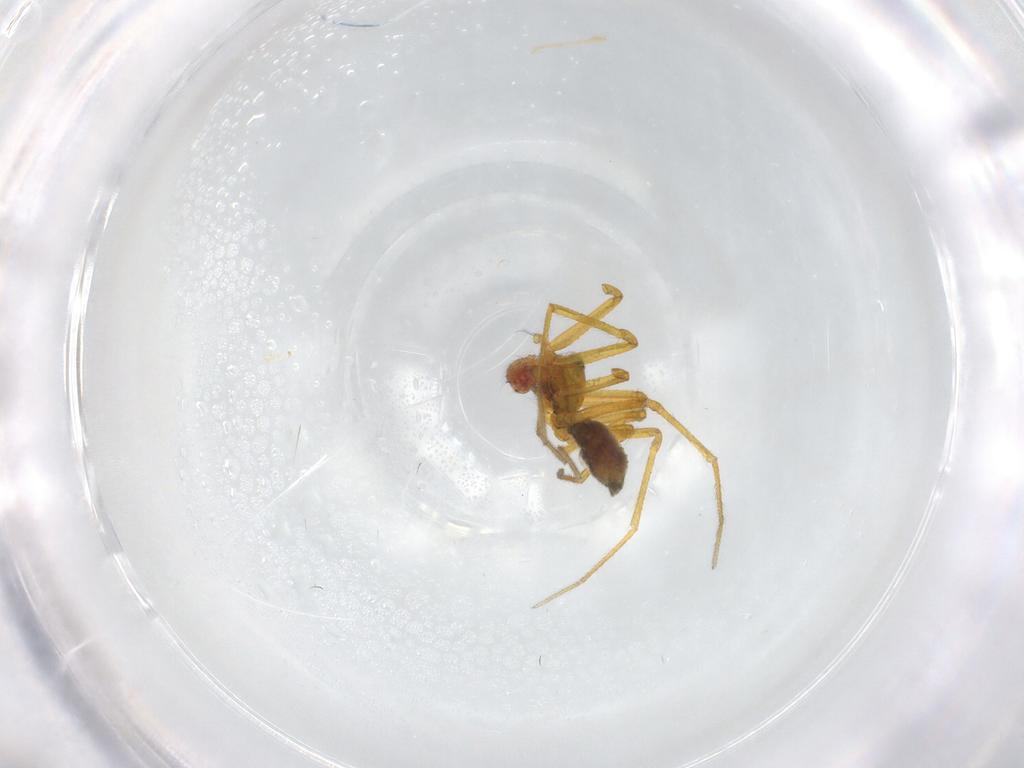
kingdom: Animalia
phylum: Arthropoda
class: Arachnida
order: Araneae
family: Linyphiidae
